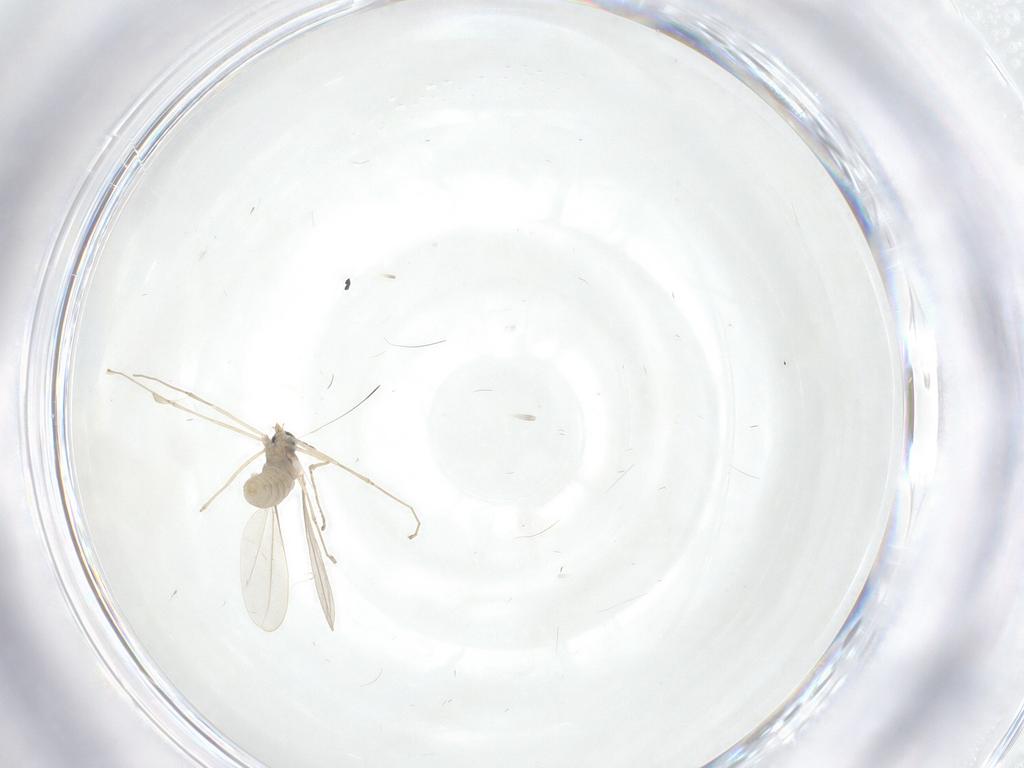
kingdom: Animalia
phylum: Arthropoda
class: Insecta
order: Diptera
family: Cecidomyiidae
